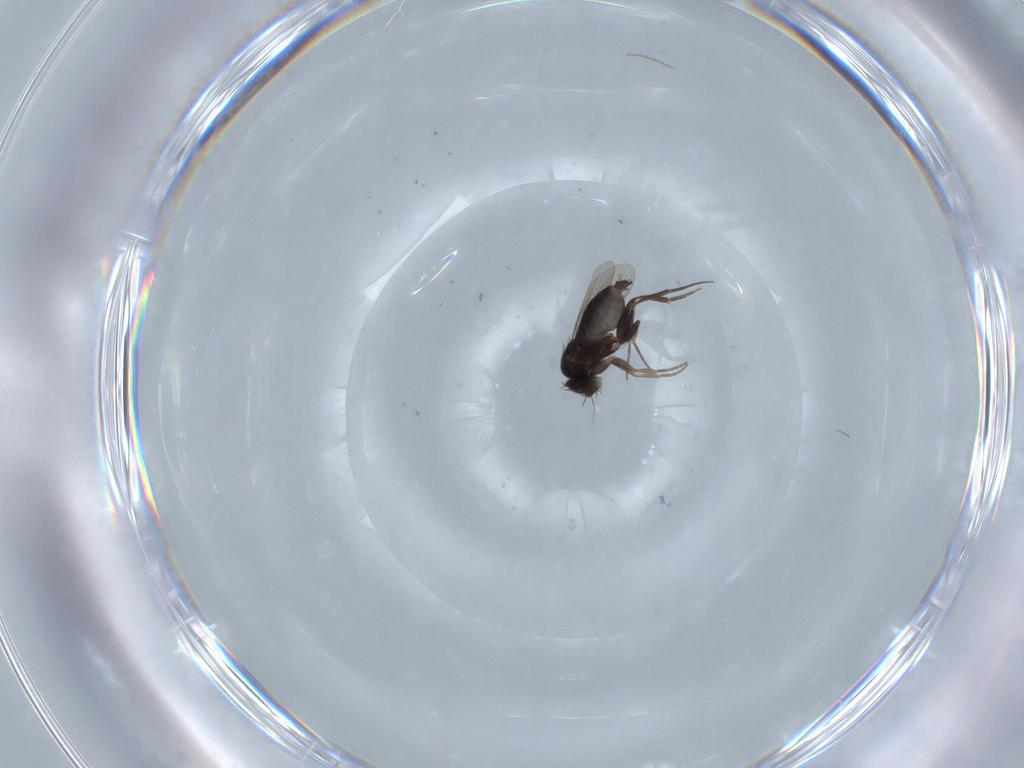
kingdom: Animalia
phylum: Arthropoda
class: Insecta
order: Diptera
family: Phoridae
